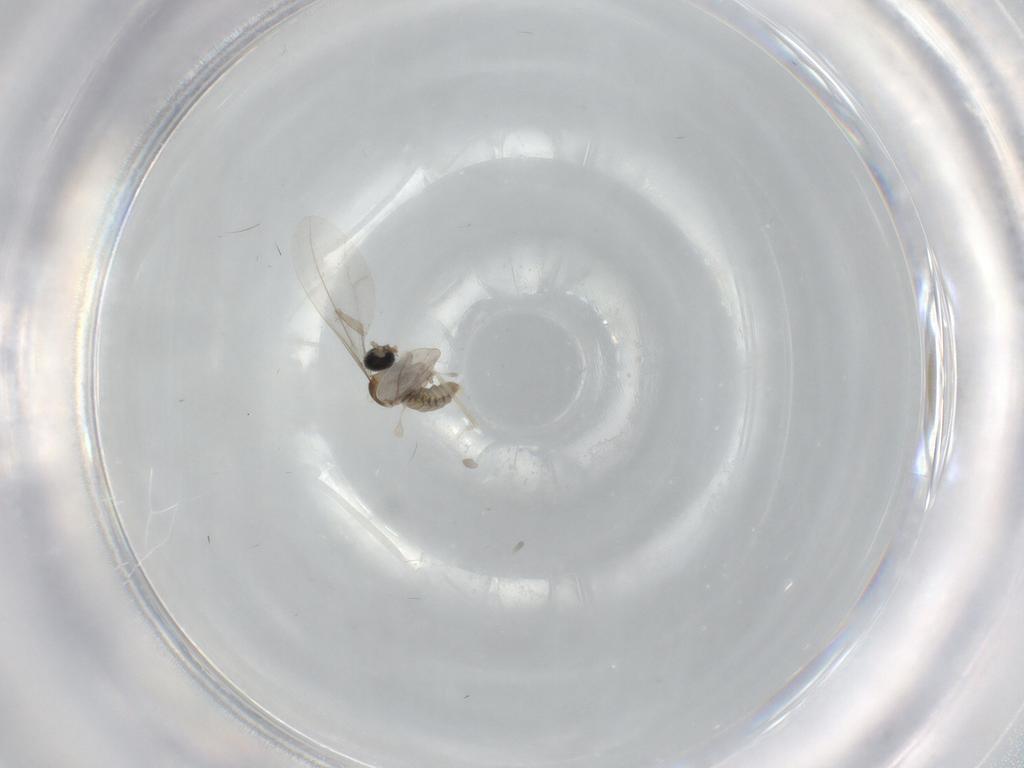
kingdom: Animalia
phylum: Arthropoda
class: Insecta
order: Diptera
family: Cecidomyiidae
